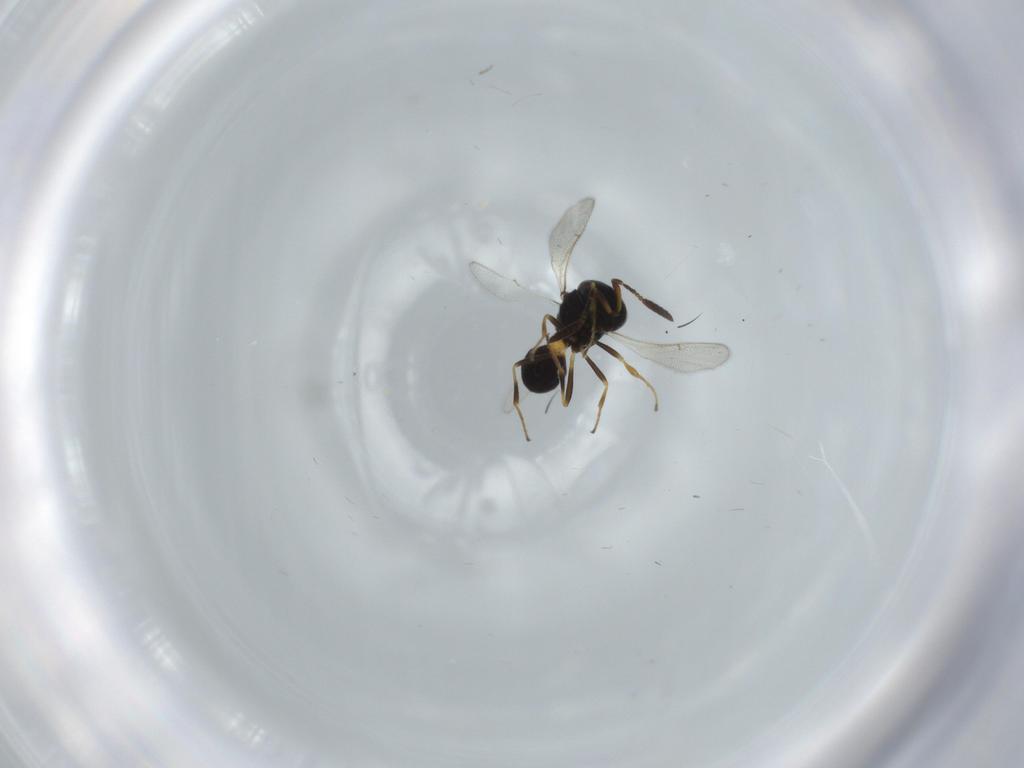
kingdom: Animalia
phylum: Arthropoda
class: Insecta
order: Hymenoptera
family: Scelionidae
